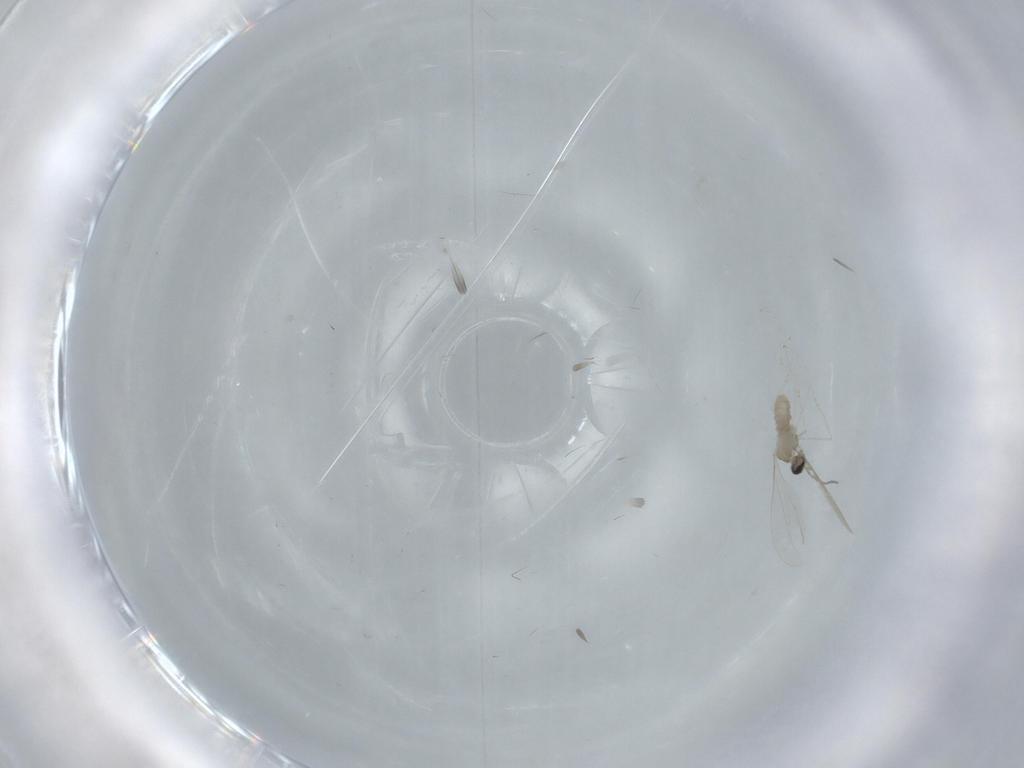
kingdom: Animalia
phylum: Arthropoda
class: Insecta
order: Diptera
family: Cecidomyiidae
